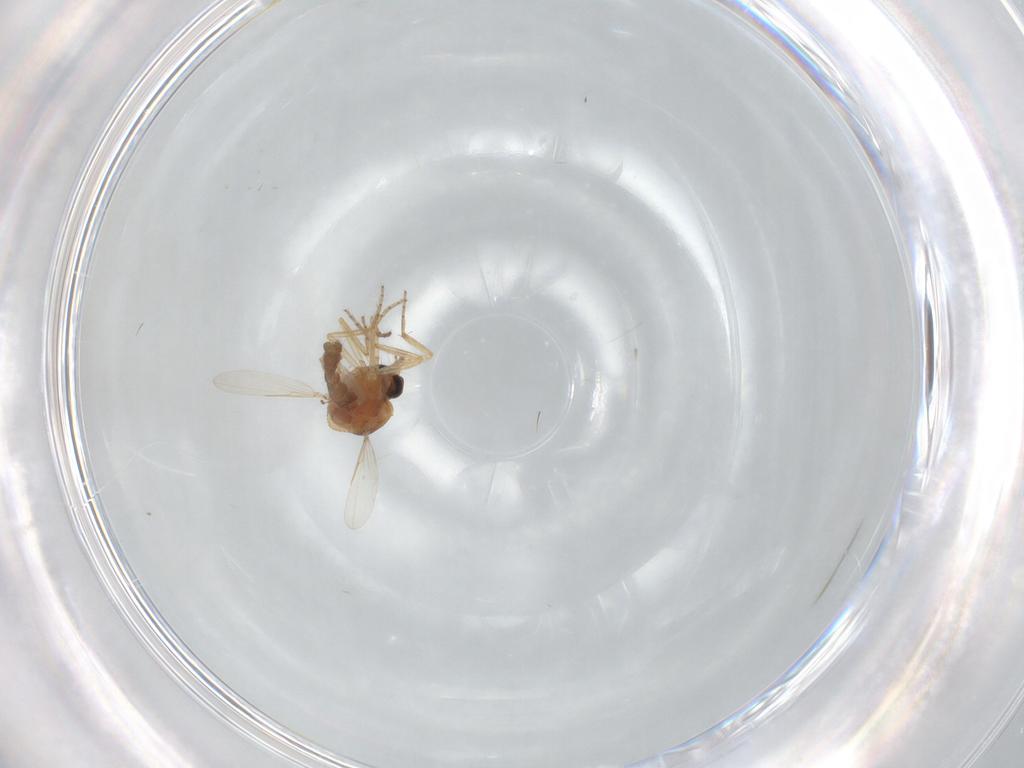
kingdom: Animalia
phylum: Arthropoda
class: Insecta
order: Diptera
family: Ceratopogonidae
